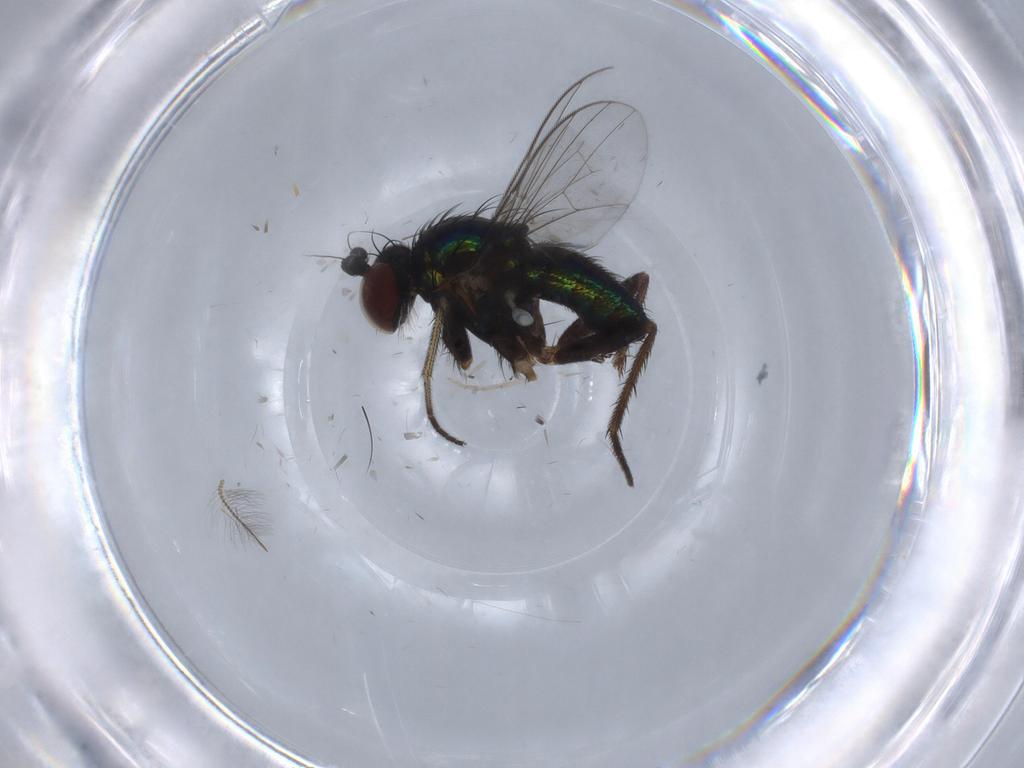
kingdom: Animalia
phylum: Arthropoda
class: Insecta
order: Diptera
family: Dolichopodidae
